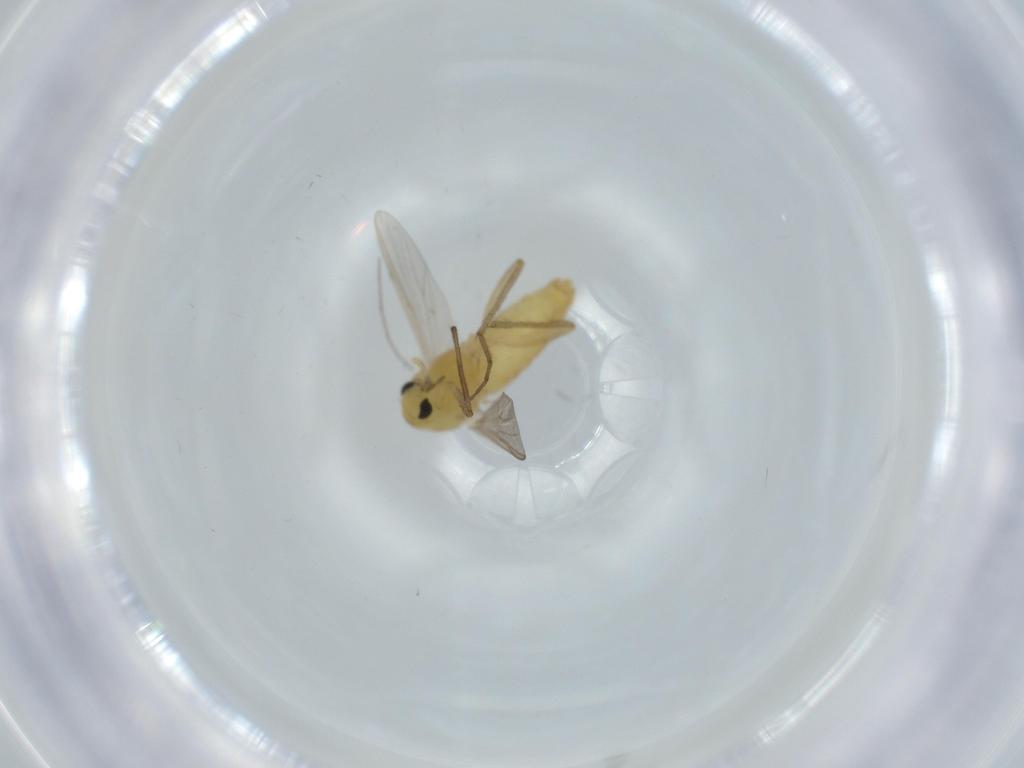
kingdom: Animalia
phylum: Arthropoda
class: Insecta
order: Diptera
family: Chironomidae
